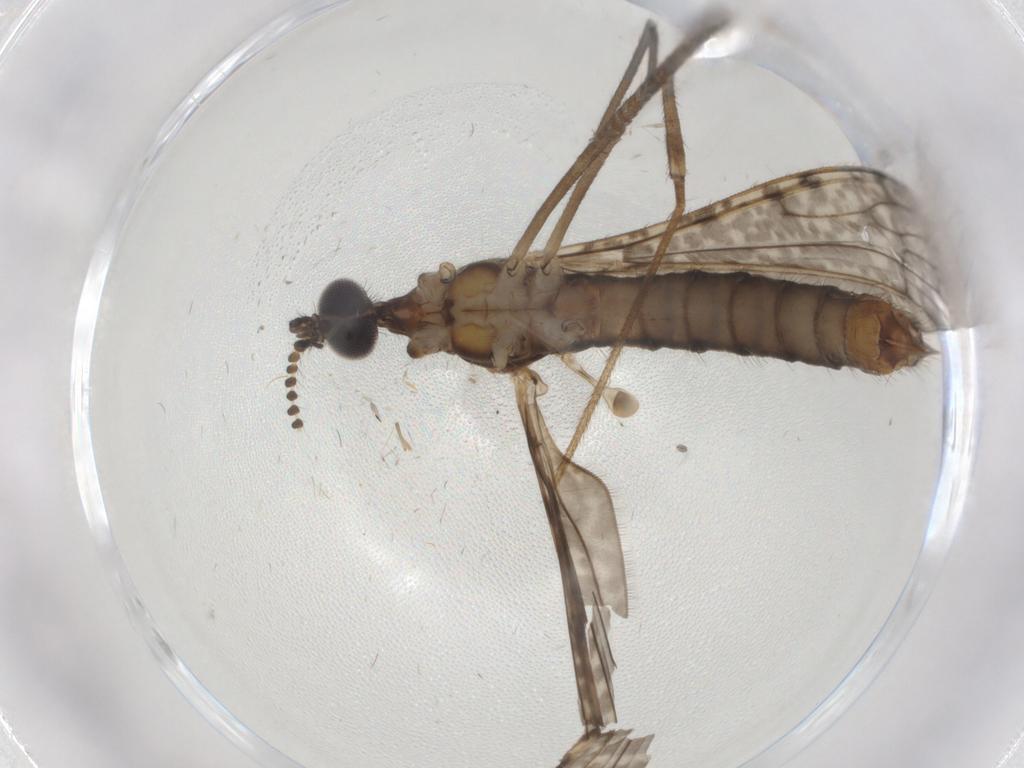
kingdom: Animalia
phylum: Arthropoda
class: Insecta
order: Diptera
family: Limoniidae
